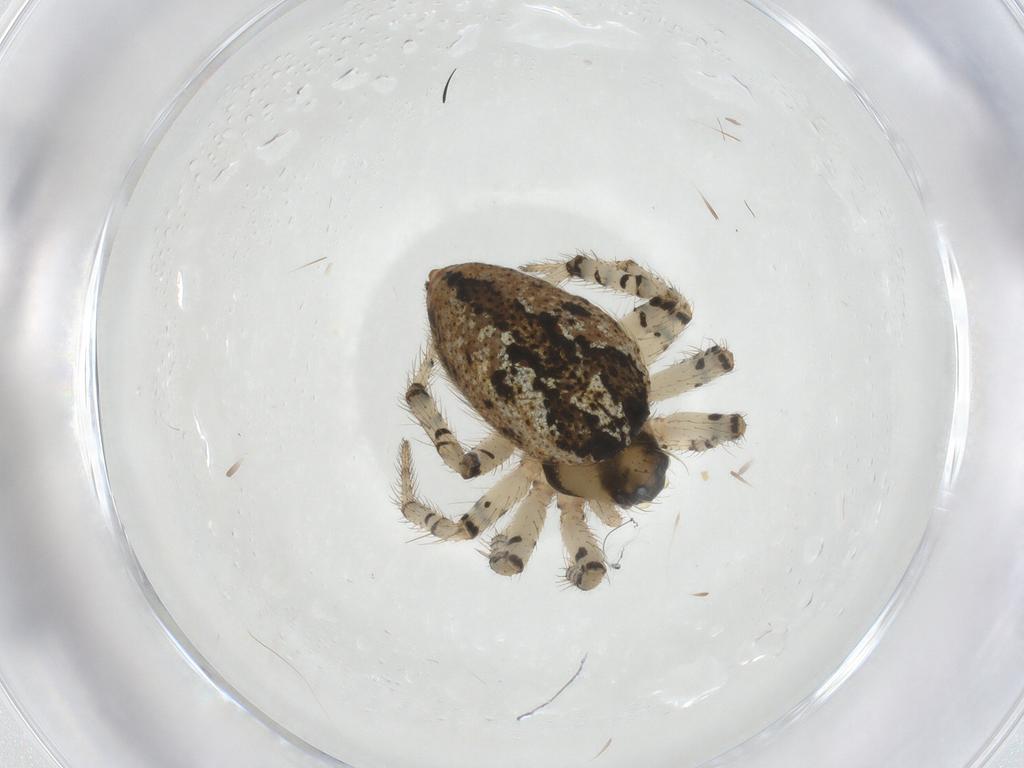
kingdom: Animalia
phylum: Arthropoda
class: Arachnida
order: Araneae
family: Theridiidae
